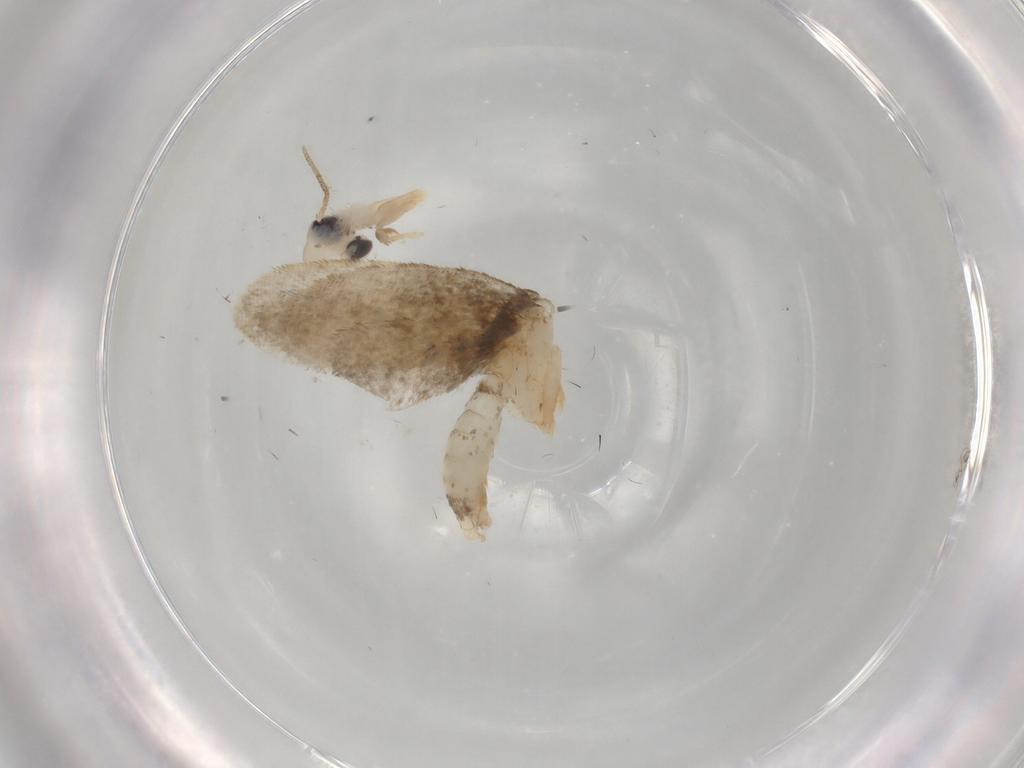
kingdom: Animalia
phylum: Arthropoda
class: Insecta
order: Lepidoptera
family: Psychidae
